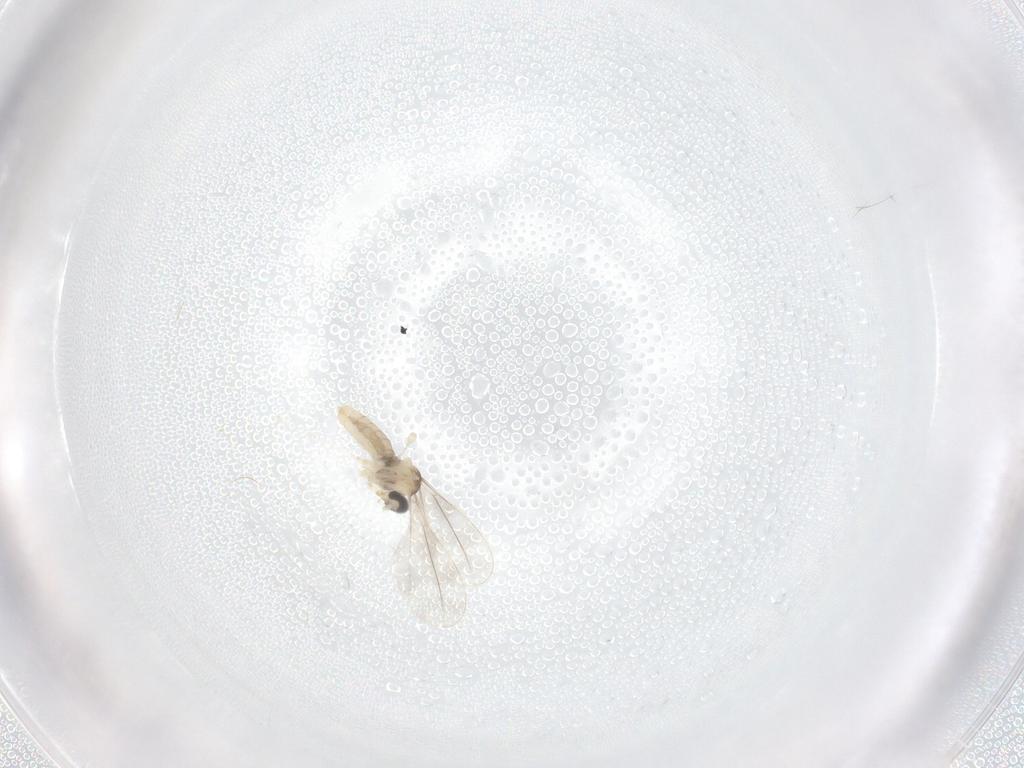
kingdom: Animalia
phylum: Arthropoda
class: Insecta
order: Diptera
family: Cecidomyiidae
